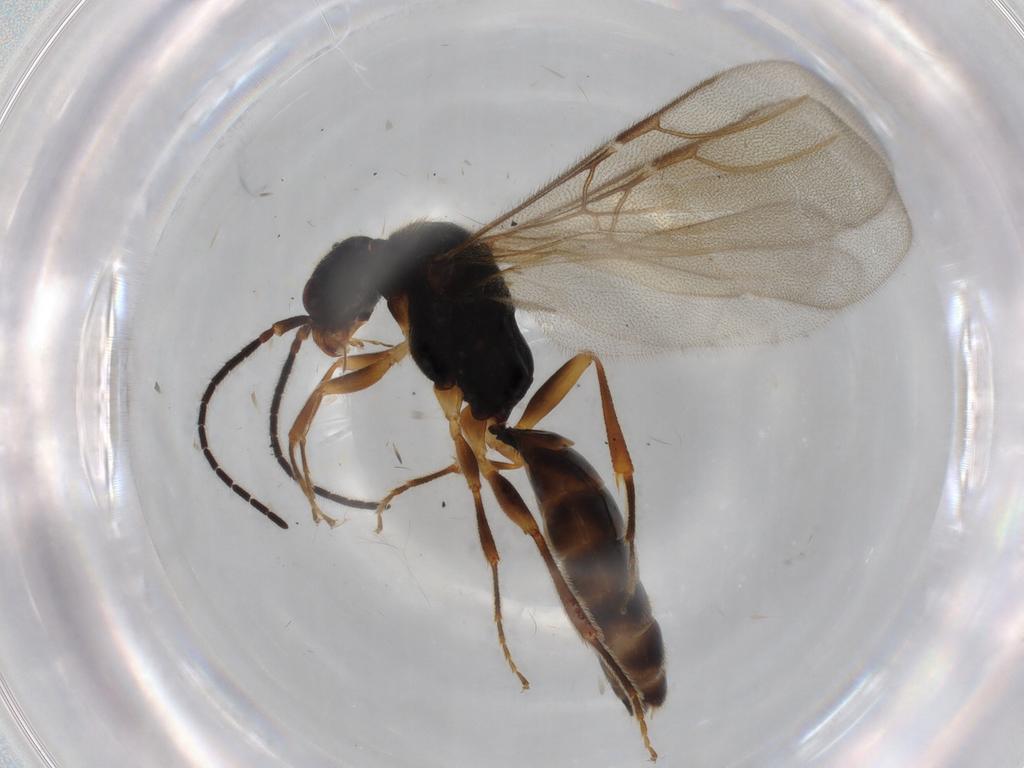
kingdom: Animalia
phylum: Arthropoda
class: Insecta
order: Hymenoptera
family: Bethylidae
